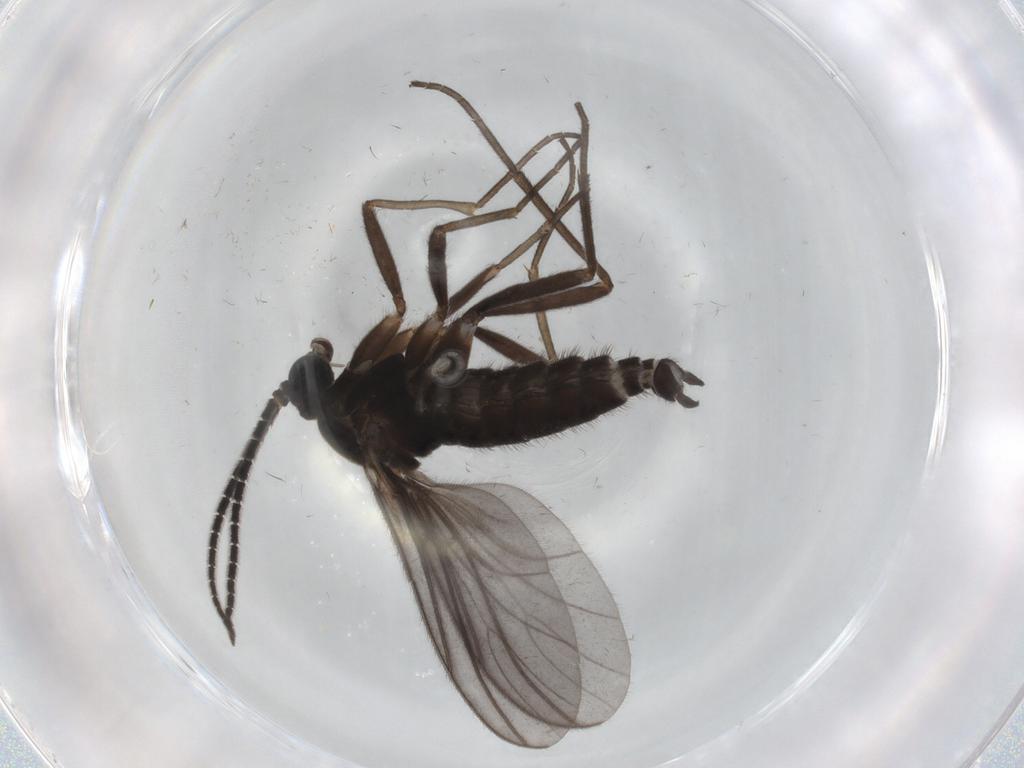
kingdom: Animalia
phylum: Arthropoda
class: Insecta
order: Diptera
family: Sciaridae
